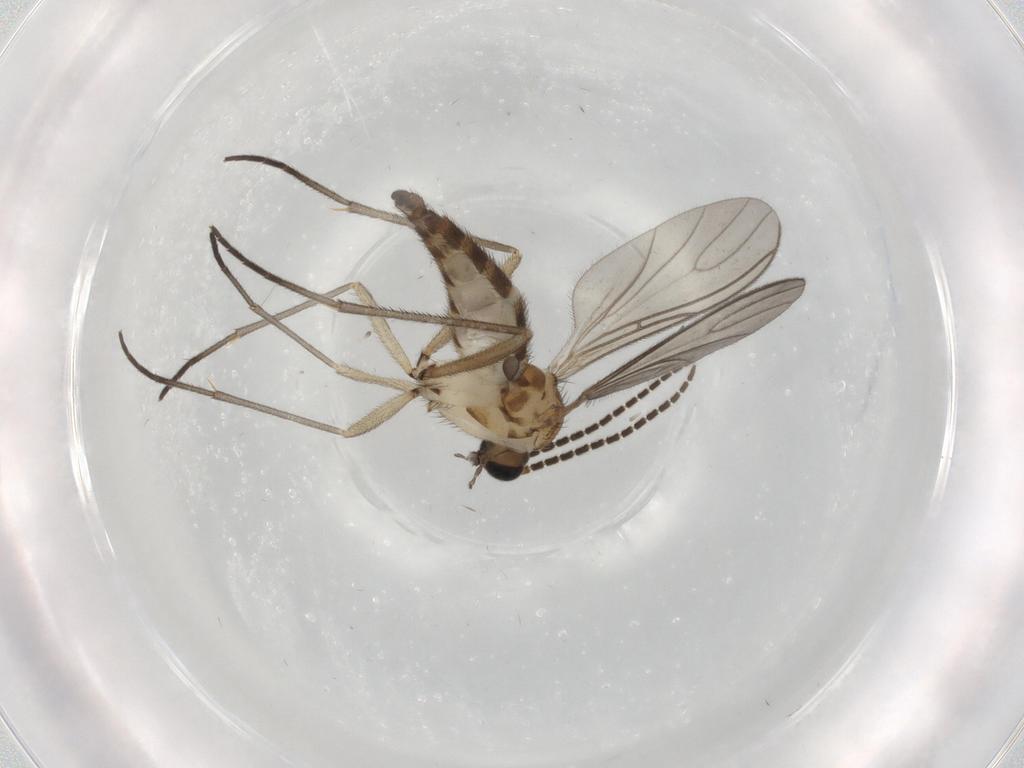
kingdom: Animalia
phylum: Arthropoda
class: Insecta
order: Diptera
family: Sciaridae
